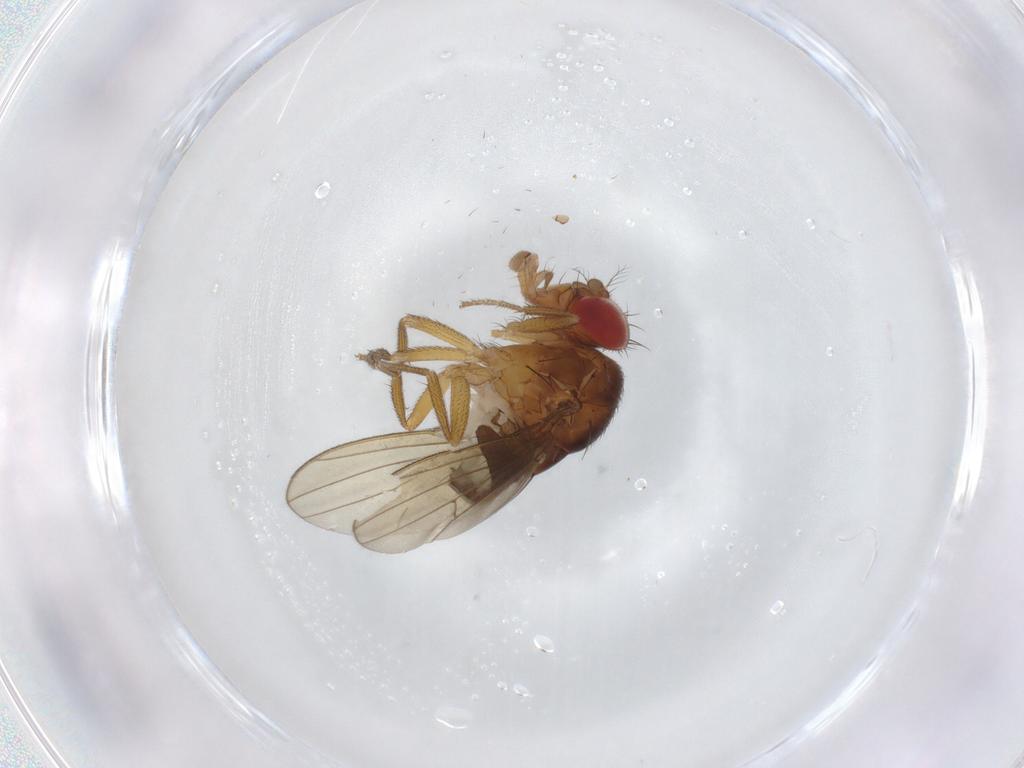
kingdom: Animalia
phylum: Arthropoda
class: Insecta
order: Diptera
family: Drosophilidae
